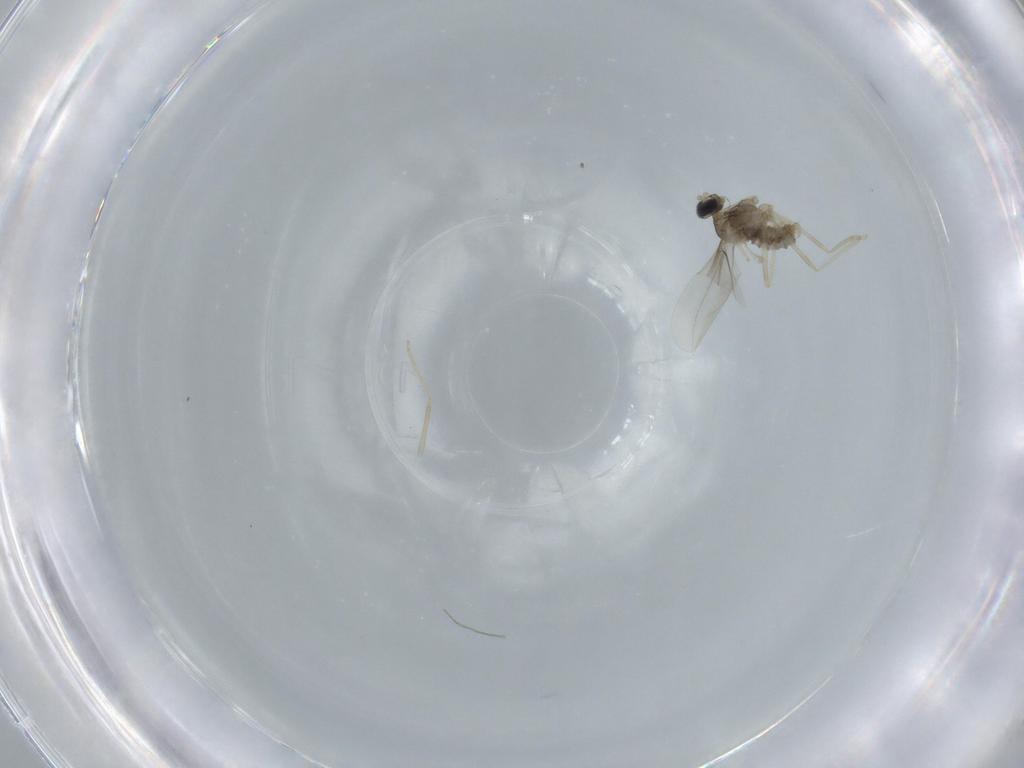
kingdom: Animalia
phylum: Arthropoda
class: Insecta
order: Diptera
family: Cecidomyiidae
